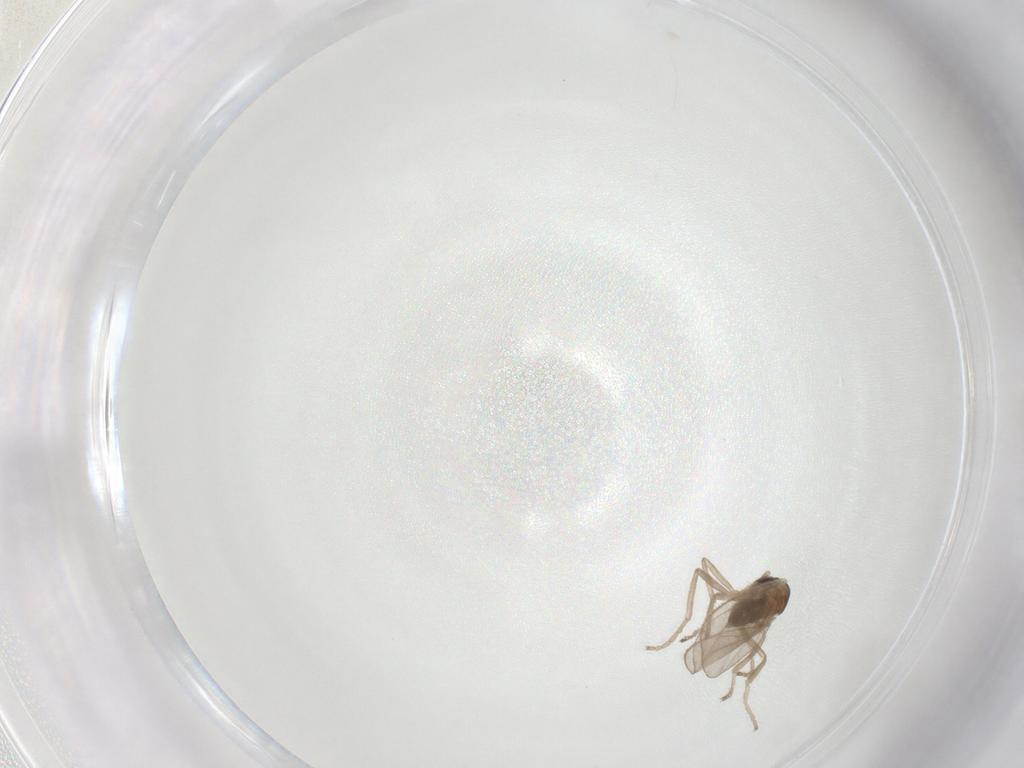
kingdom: Animalia
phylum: Arthropoda
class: Insecta
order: Diptera
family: Cecidomyiidae
